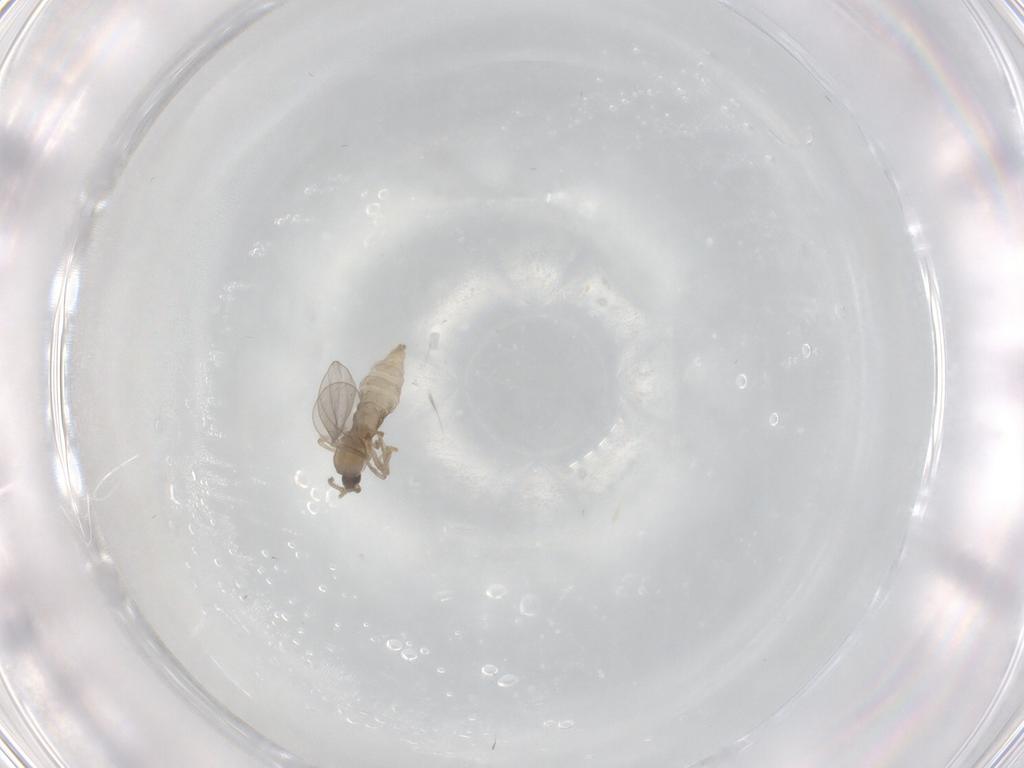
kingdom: Animalia
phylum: Arthropoda
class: Insecta
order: Diptera
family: Cecidomyiidae
